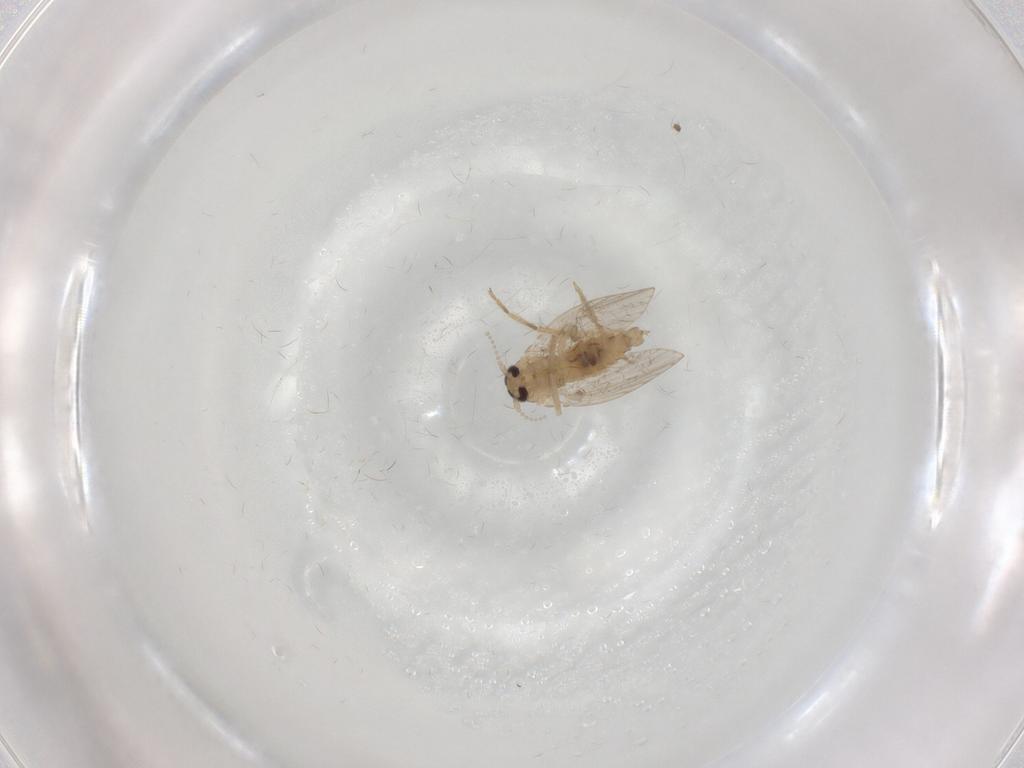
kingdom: Animalia
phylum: Arthropoda
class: Insecta
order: Diptera
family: Psychodidae
